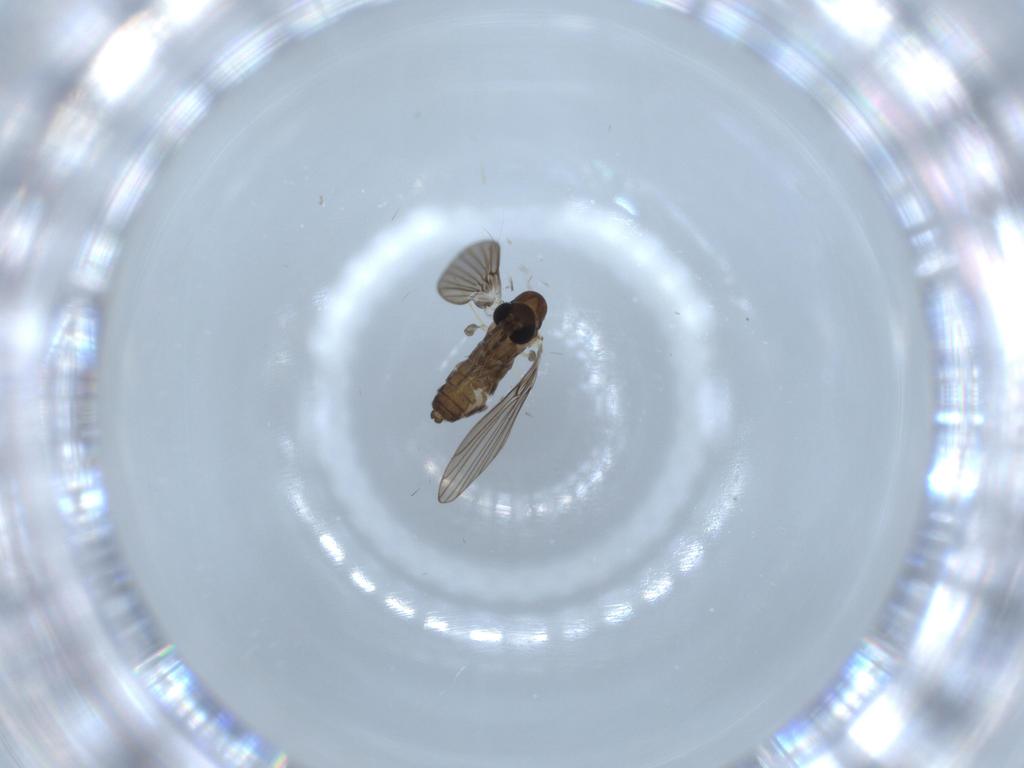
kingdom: Animalia
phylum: Arthropoda
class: Insecta
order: Diptera
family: Psychodidae
